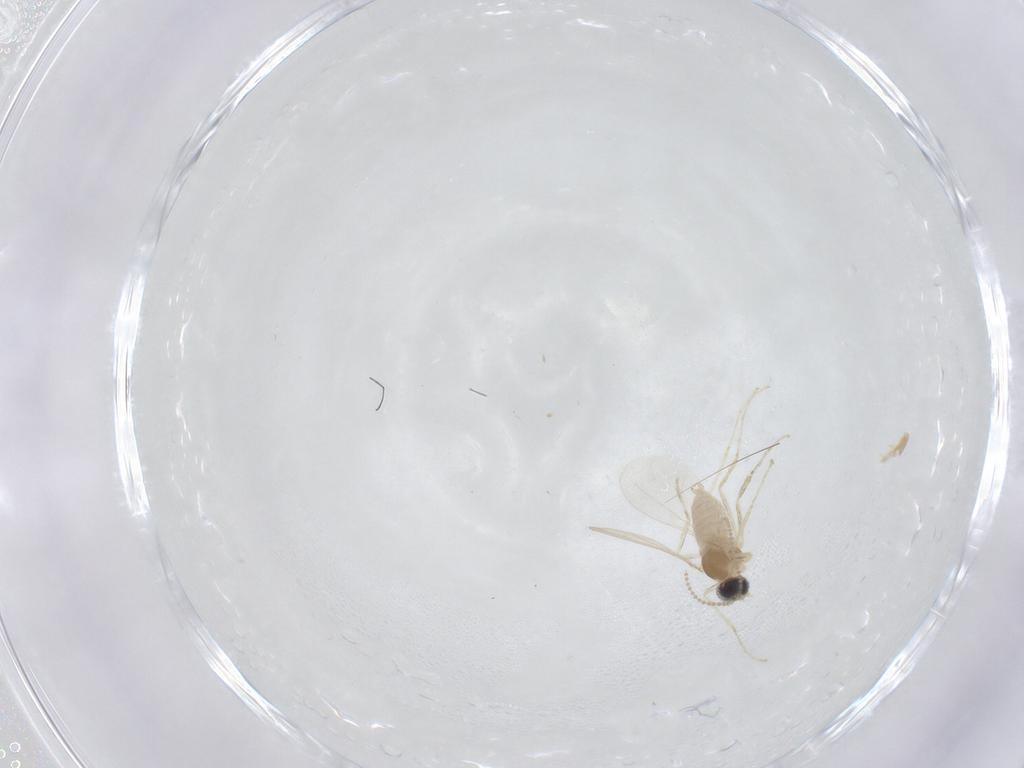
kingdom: Animalia
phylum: Arthropoda
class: Insecta
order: Diptera
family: Cecidomyiidae
